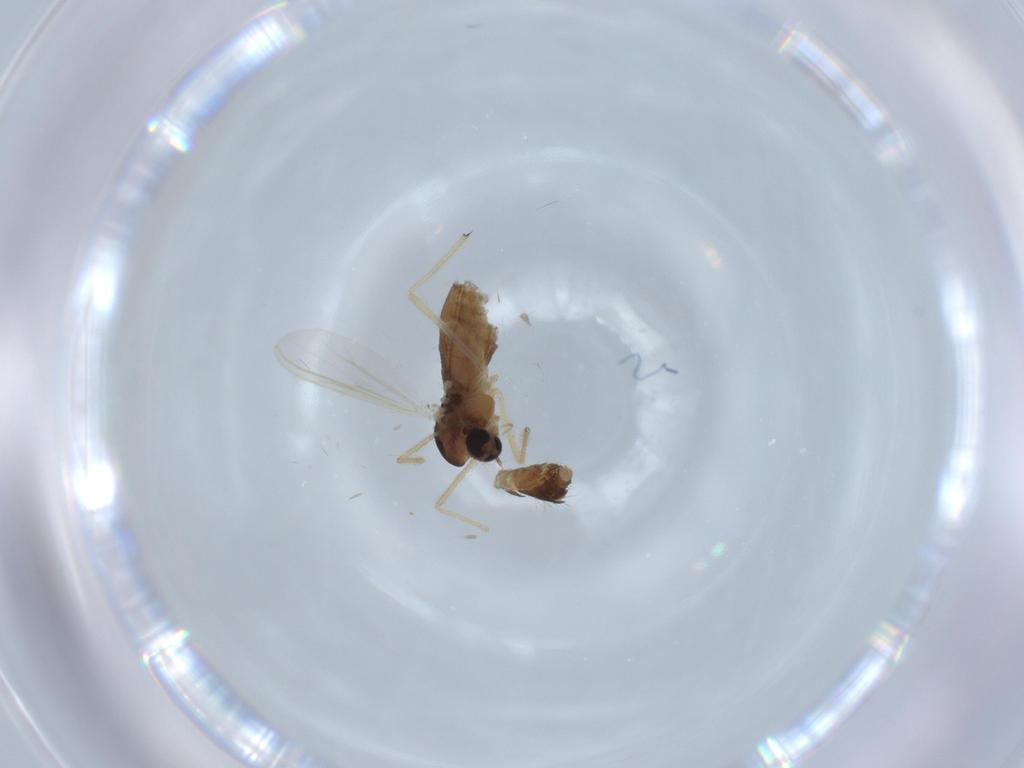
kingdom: Animalia
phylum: Arthropoda
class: Insecta
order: Diptera
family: Chironomidae
